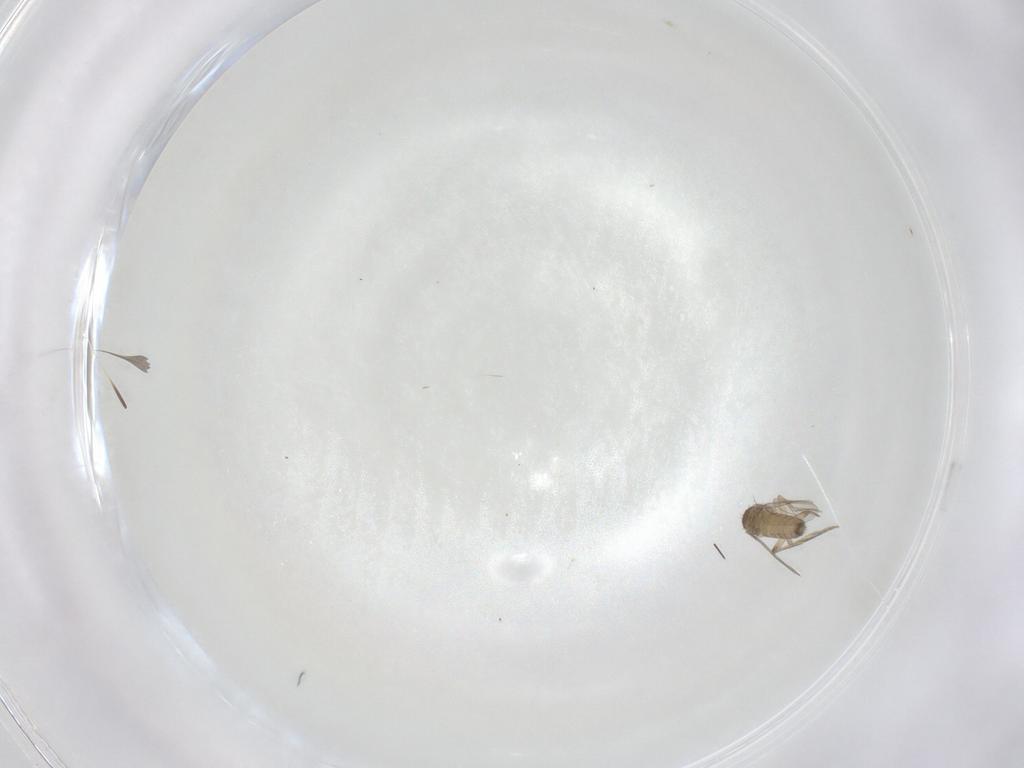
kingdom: Animalia
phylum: Arthropoda
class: Insecta
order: Diptera
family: Phoridae
